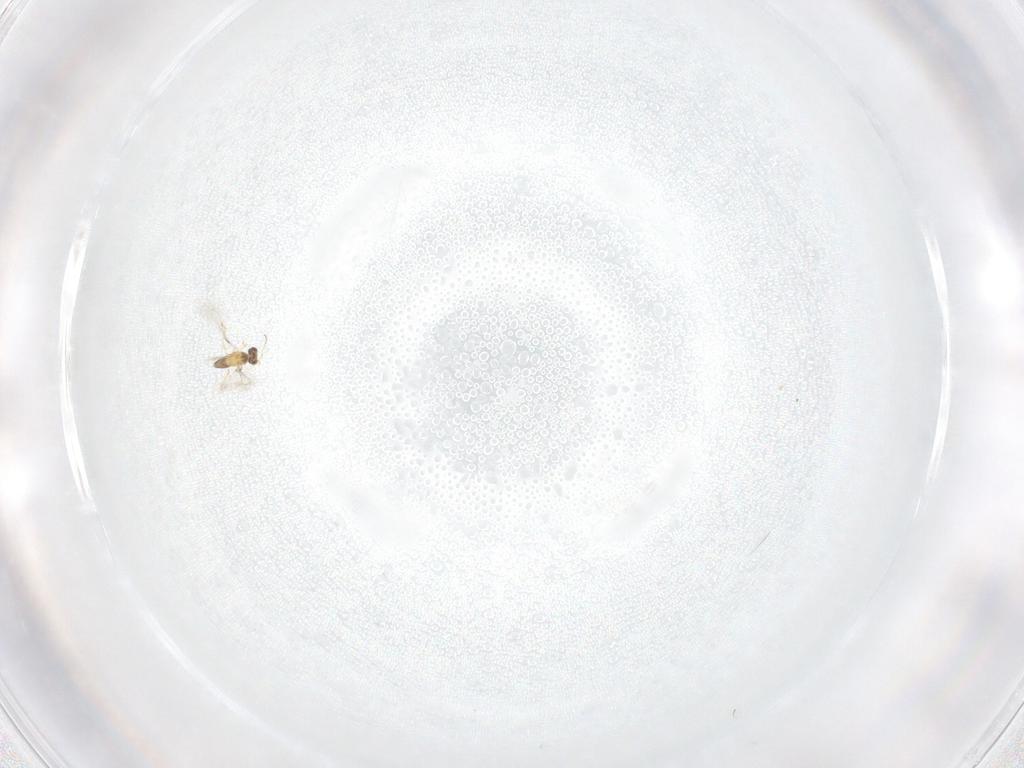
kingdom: Animalia
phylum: Arthropoda
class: Insecta
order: Hymenoptera
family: Mymaridae
